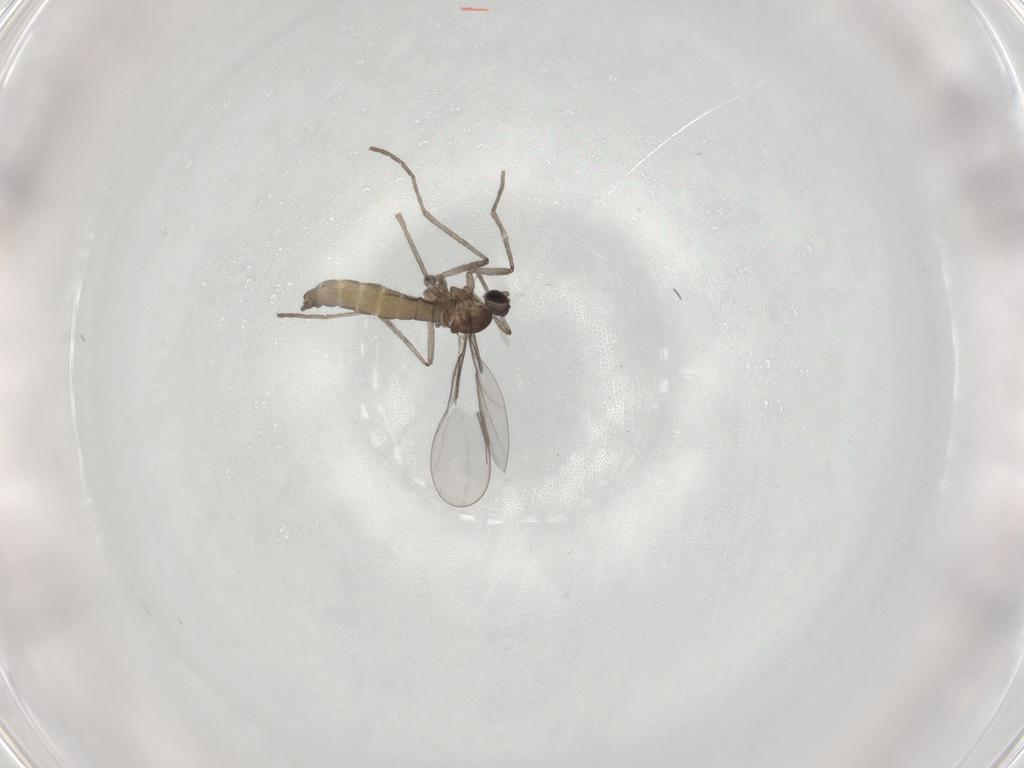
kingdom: Animalia
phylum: Arthropoda
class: Insecta
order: Diptera
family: Cecidomyiidae
